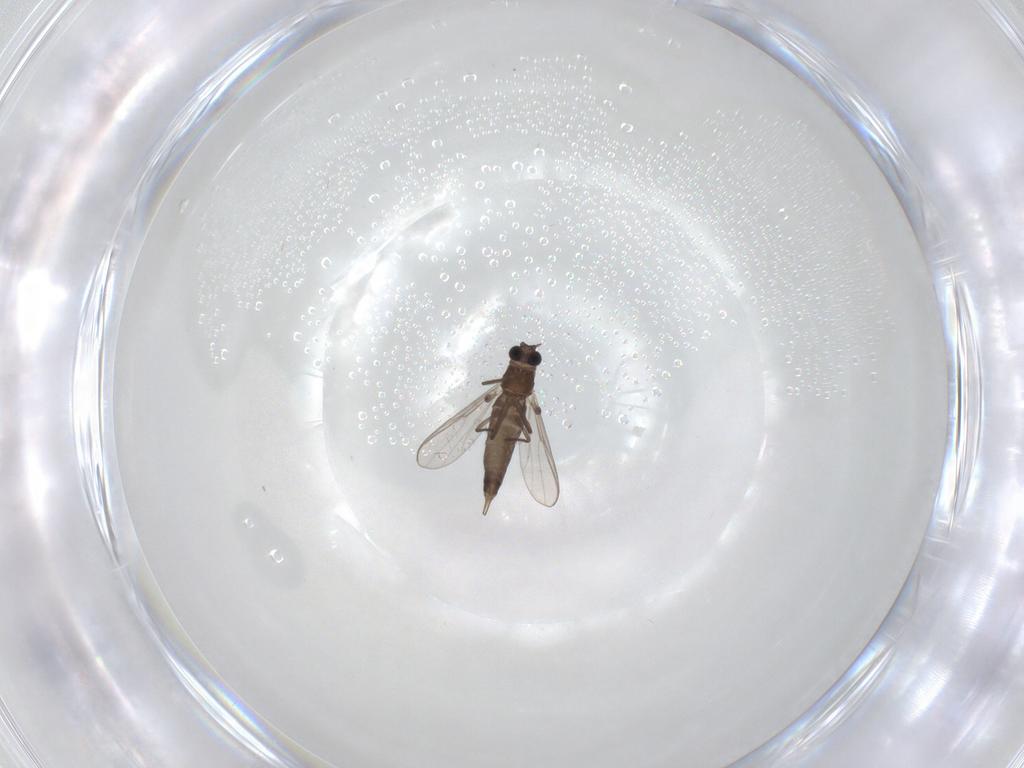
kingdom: Animalia
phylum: Arthropoda
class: Insecta
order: Diptera
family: Chironomidae
